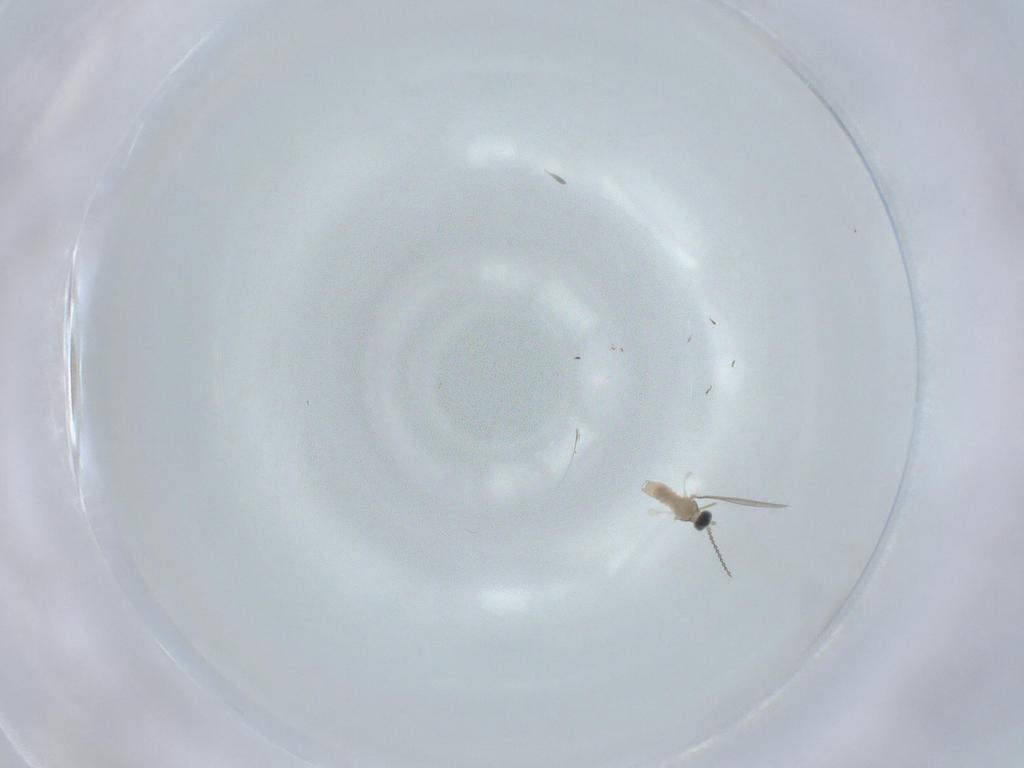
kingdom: Animalia
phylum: Arthropoda
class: Insecta
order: Diptera
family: Cecidomyiidae
